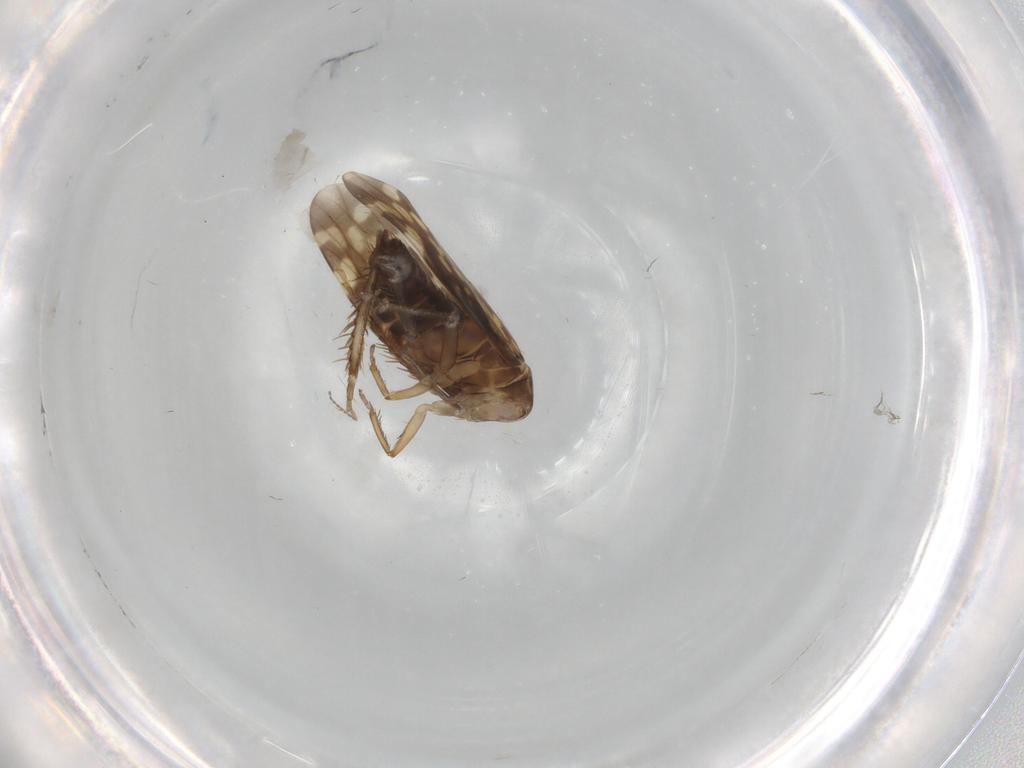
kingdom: Animalia
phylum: Arthropoda
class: Insecta
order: Hemiptera
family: Cicadellidae
